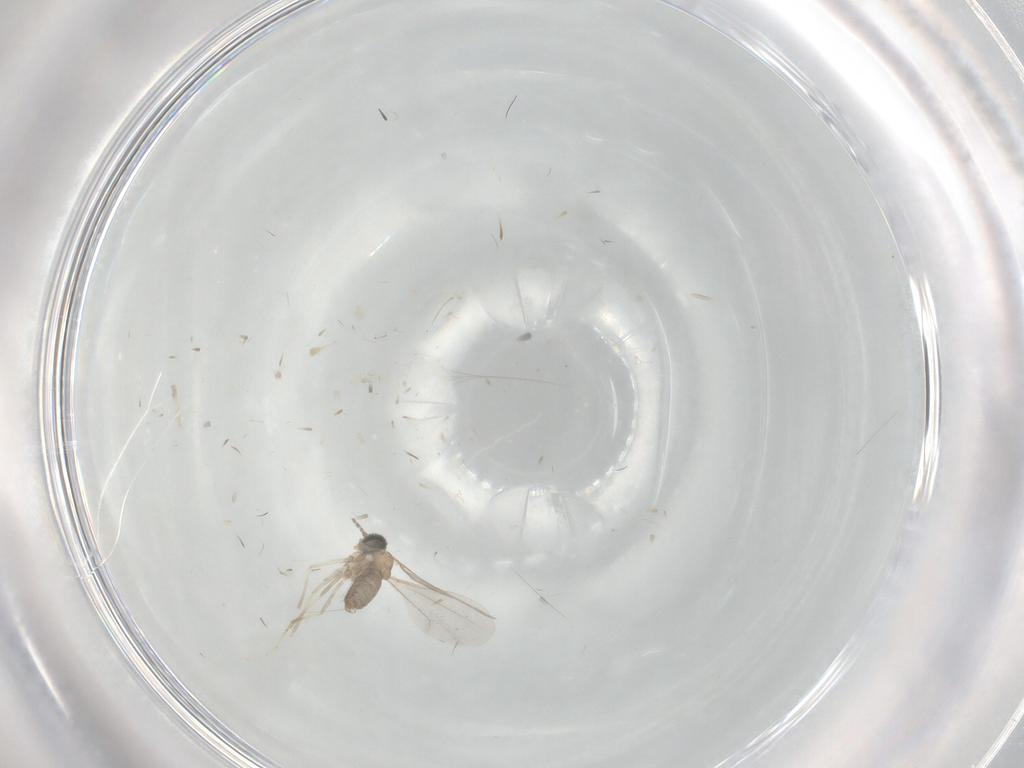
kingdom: Animalia
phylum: Arthropoda
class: Insecta
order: Diptera
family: Cecidomyiidae
